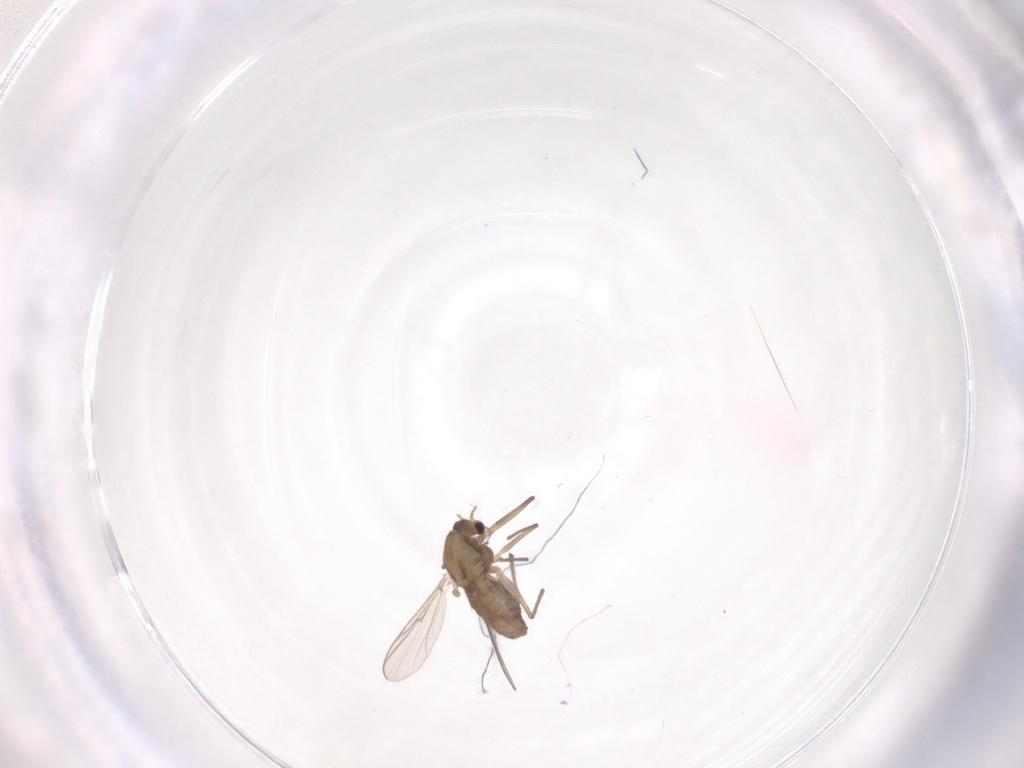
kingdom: Animalia
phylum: Arthropoda
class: Insecta
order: Diptera
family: Chironomidae
